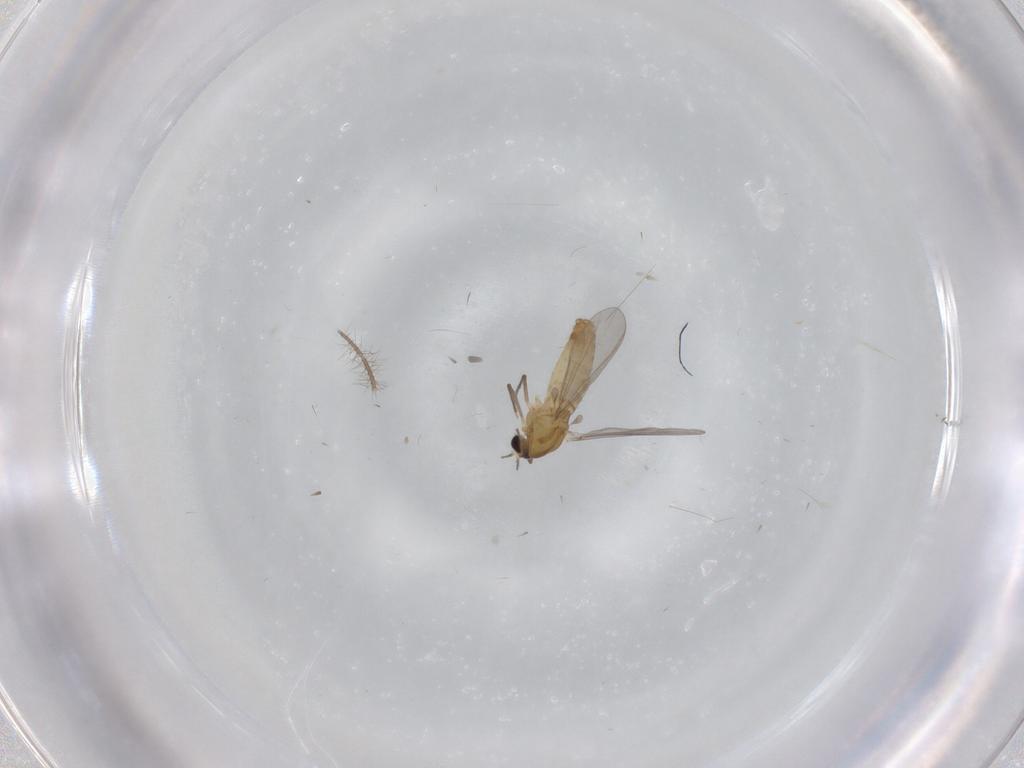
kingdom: Animalia
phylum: Arthropoda
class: Insecta
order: Diptera
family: Chironomidae
